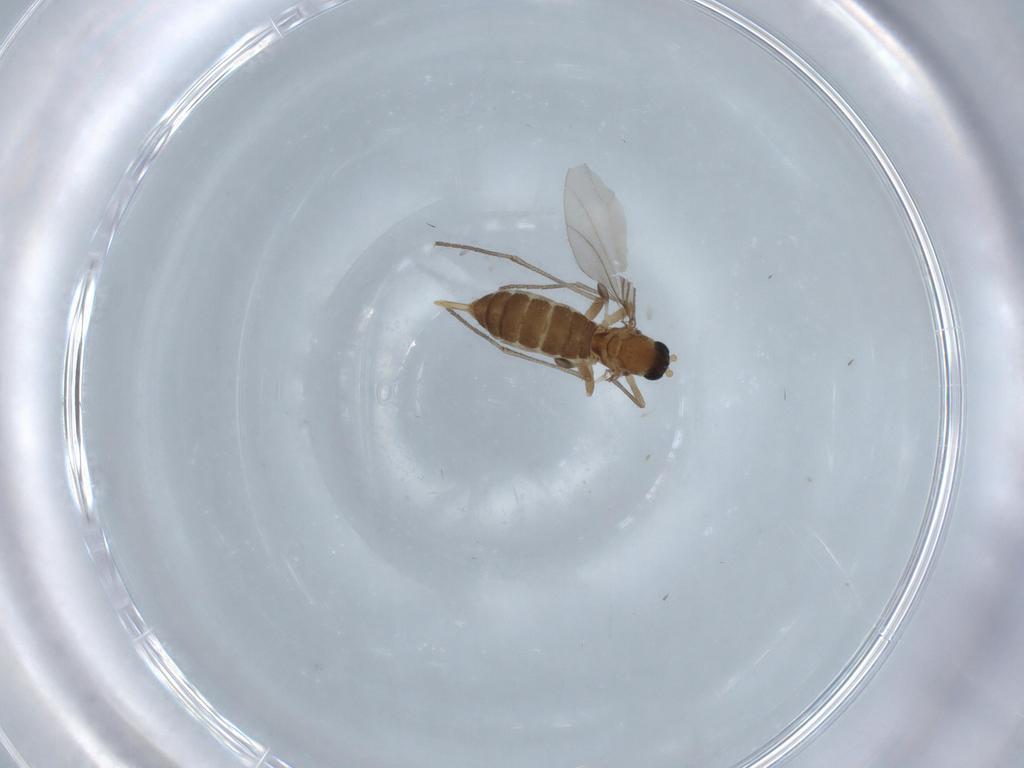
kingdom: Animalia
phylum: Arthropoda
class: Insecta
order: Diptera
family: Sciaridae
